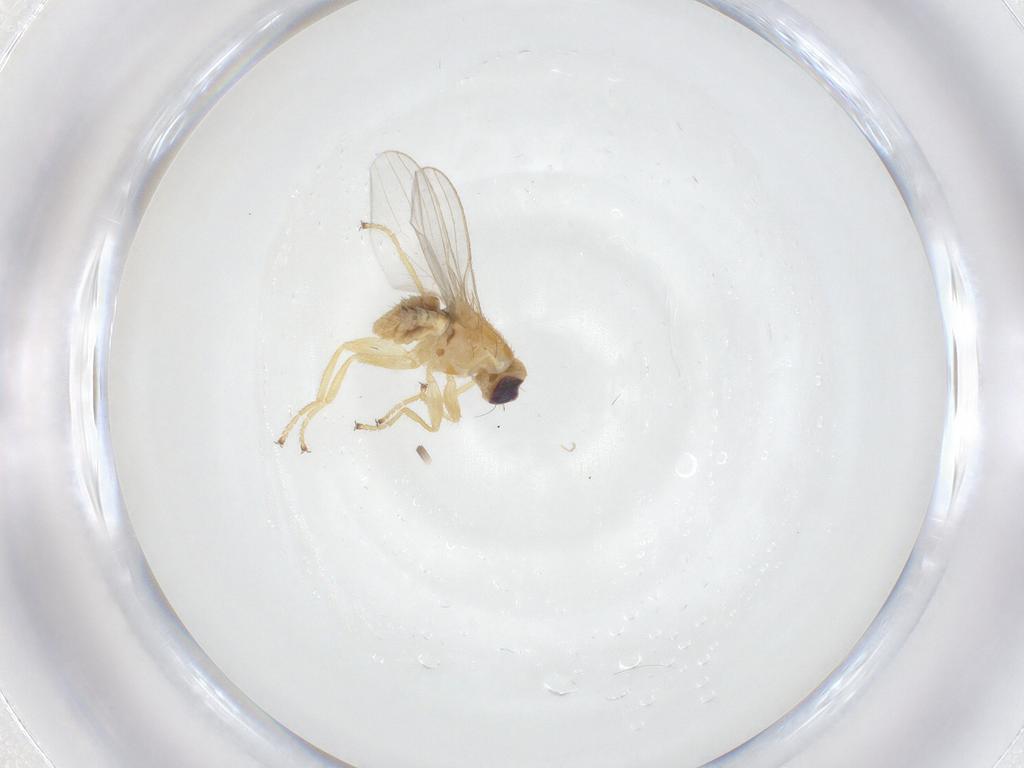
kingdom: Animalia
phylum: Arthropoda
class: Insecta
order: Diptera
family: Chyromyidae
